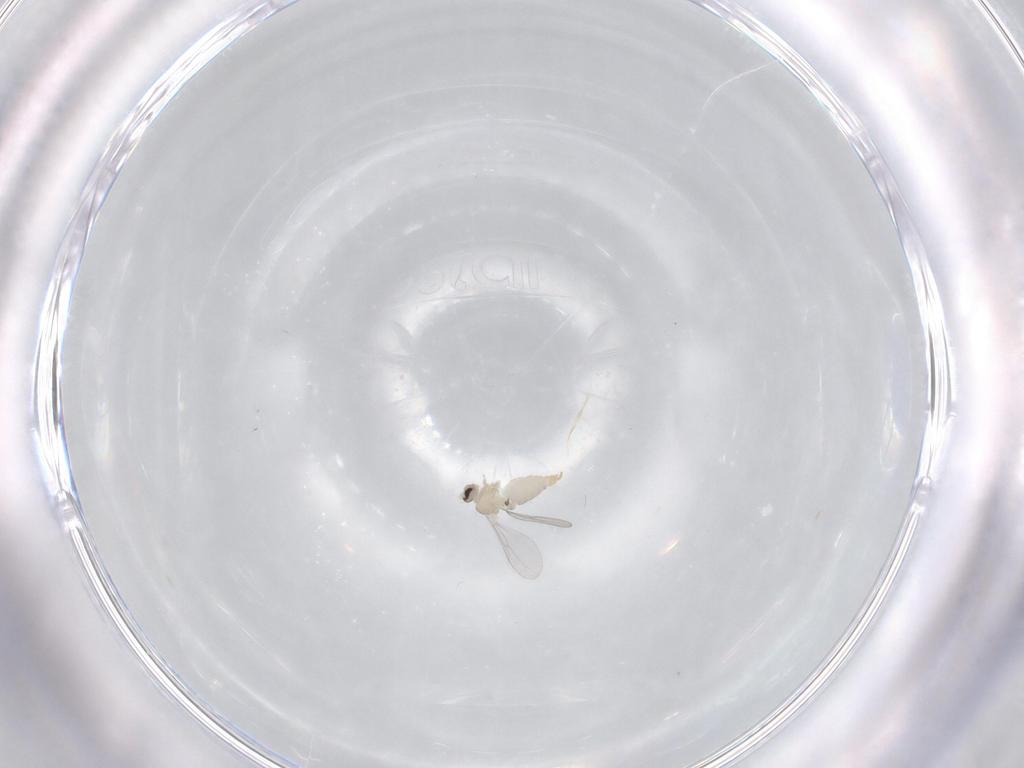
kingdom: Animalia
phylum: Arthropoda
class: Insecta
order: Diptera
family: Cecidomyiidae
